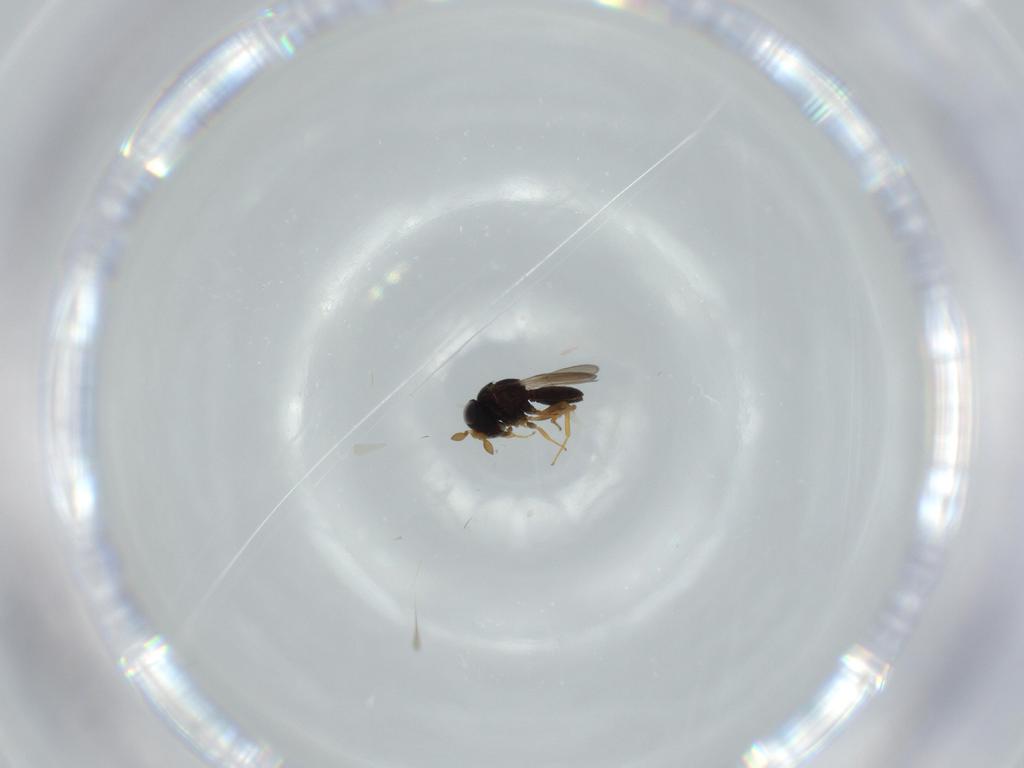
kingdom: Animalia
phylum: Arthropoda
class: Insecta
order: Hymenoptera
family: Scelionidae
